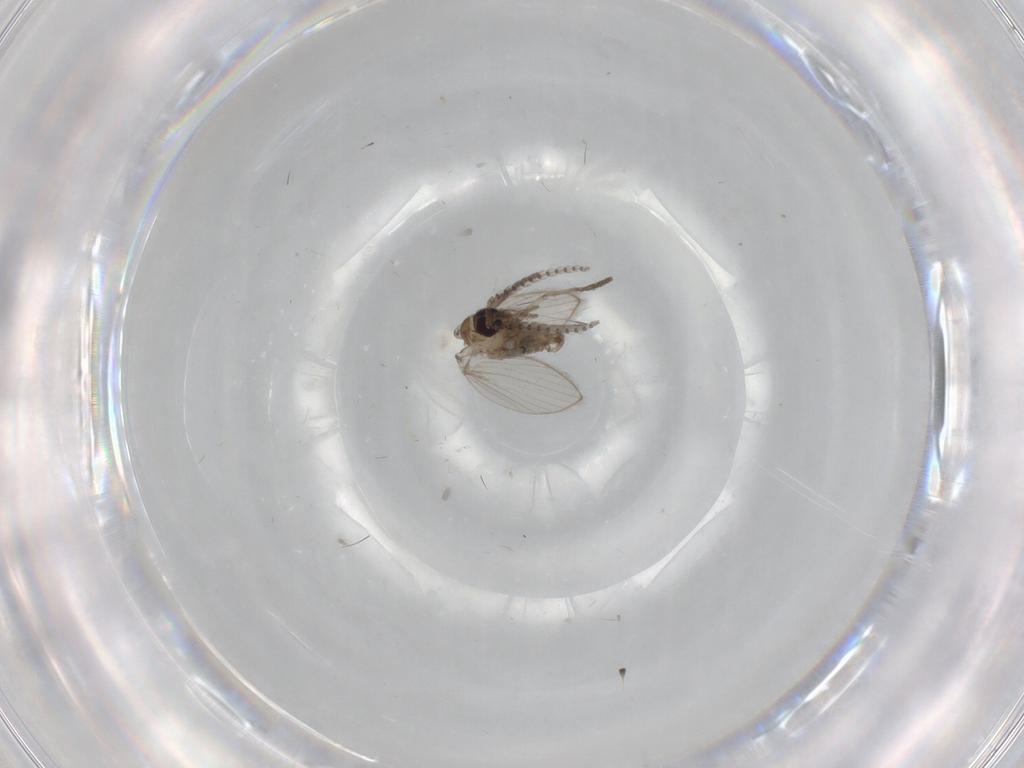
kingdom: Animalia
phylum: Arthropoda
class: Insecta
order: Diptera
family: Psychodidae
